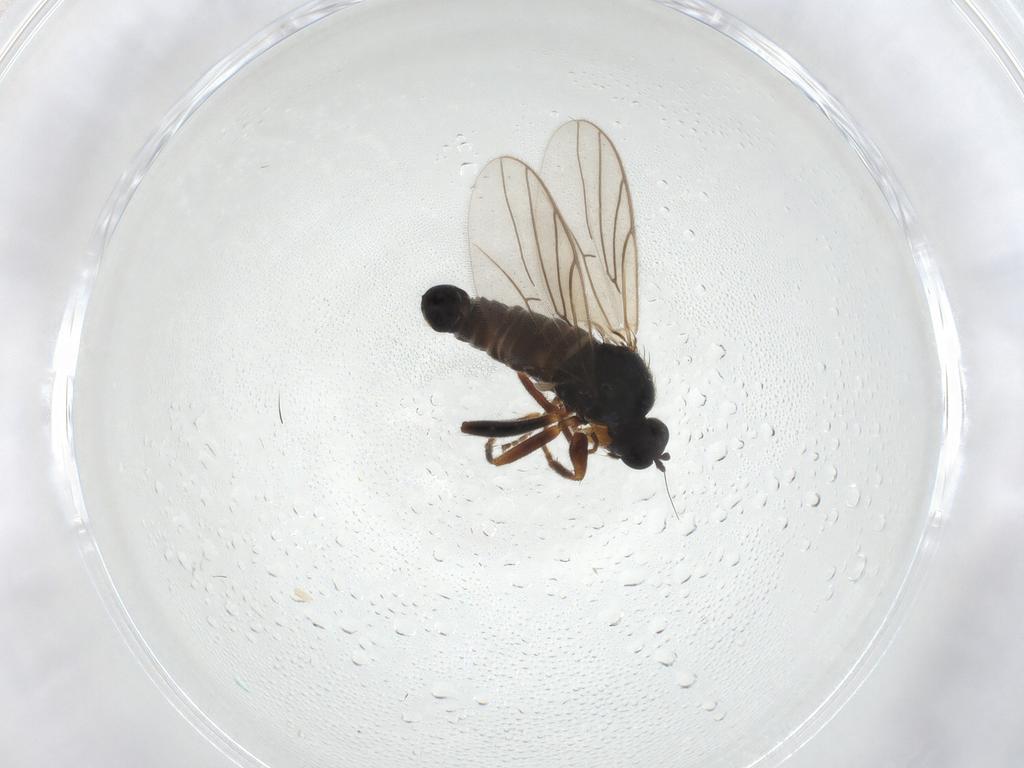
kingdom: Animalia
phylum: Arthropoda
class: Insecta
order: Diptera
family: Phoridae
